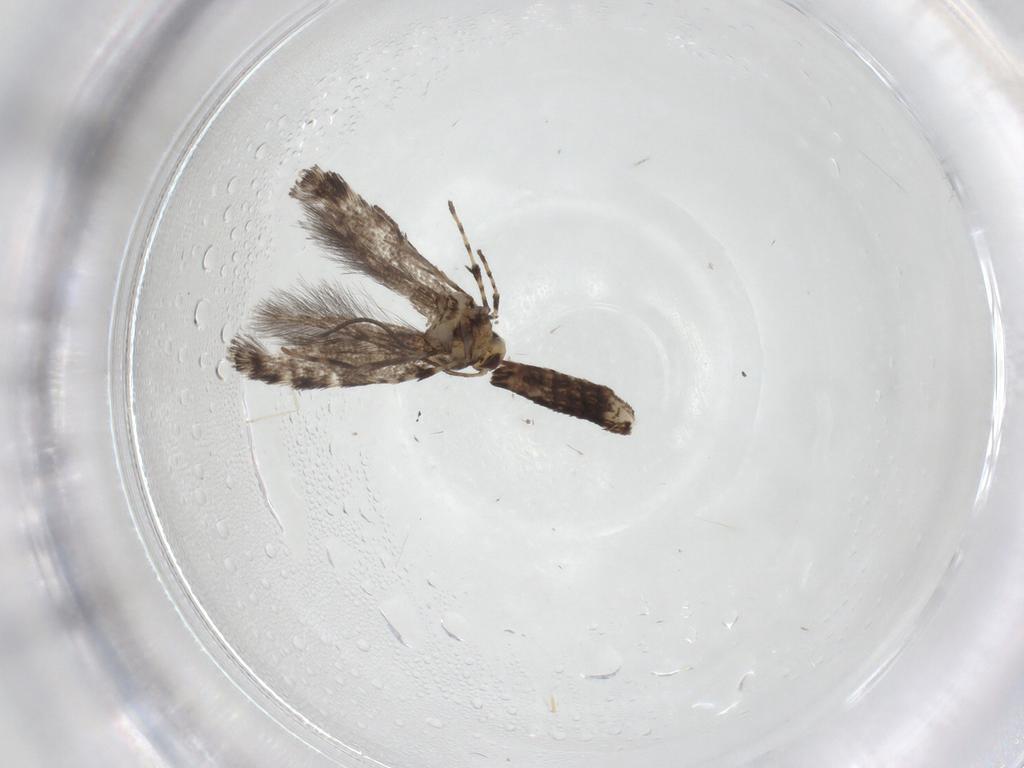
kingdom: Animalia
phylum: Arthropoda
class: Insecta
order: Lepidoptera
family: Gracillariidae
